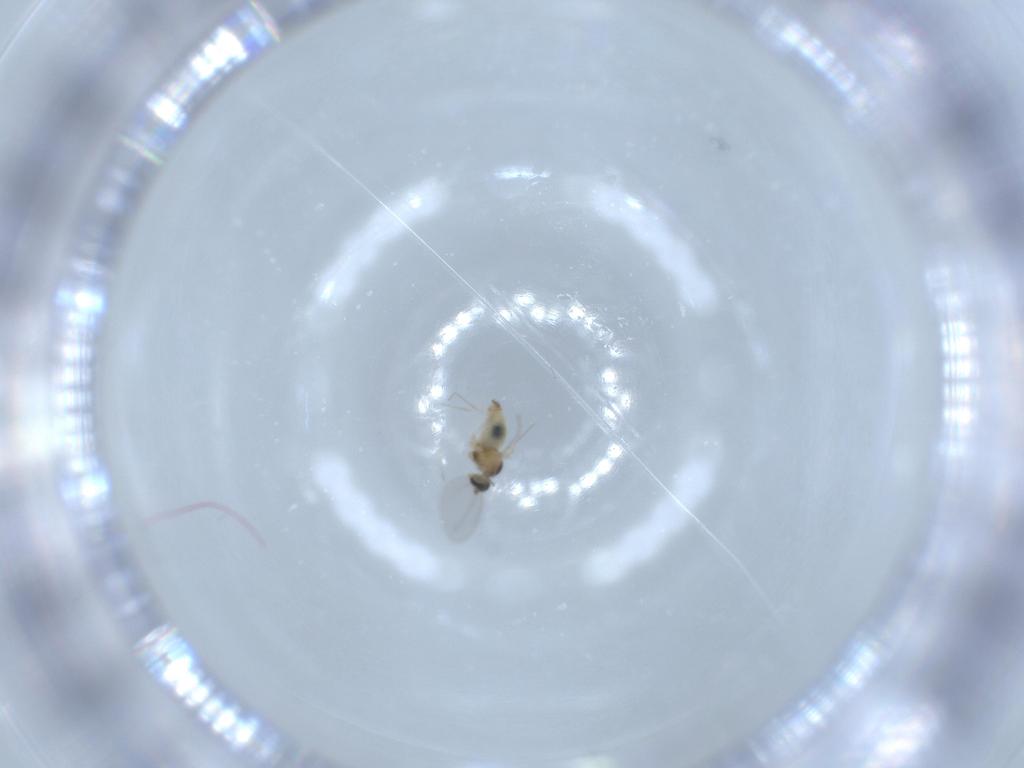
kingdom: Animalia
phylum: Arthropoda
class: Insecta
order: Diptera
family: Cecidomyiidae
